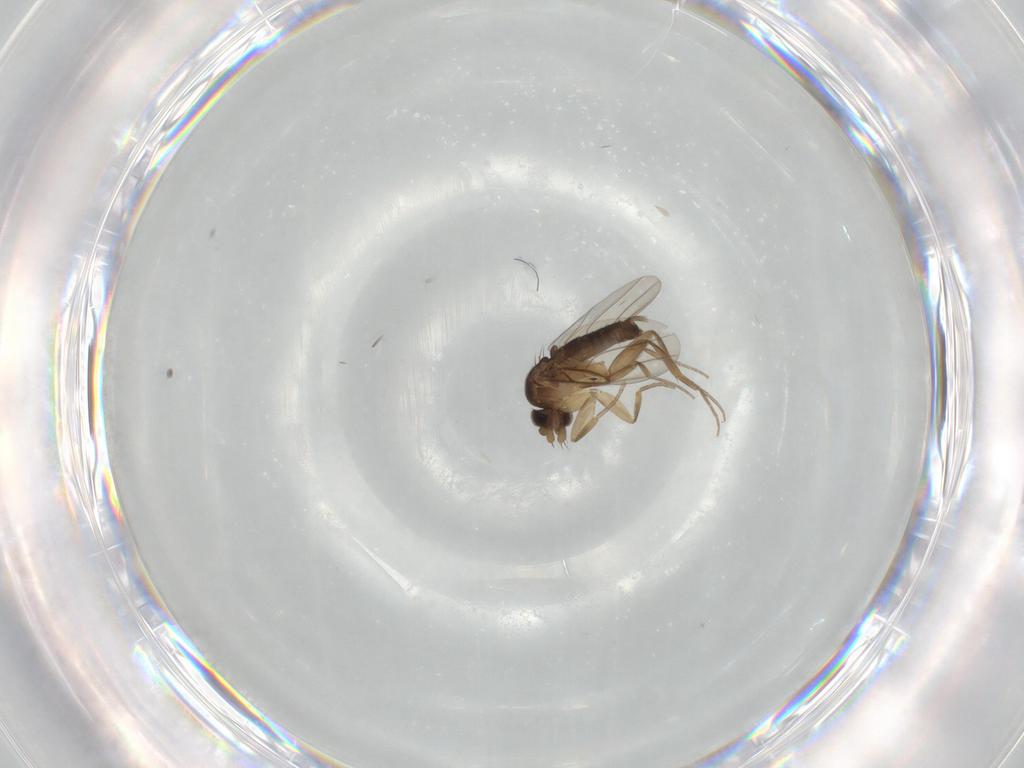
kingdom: Animalia
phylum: Arthropoda
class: Insecta
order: Diptera
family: Phoridae
